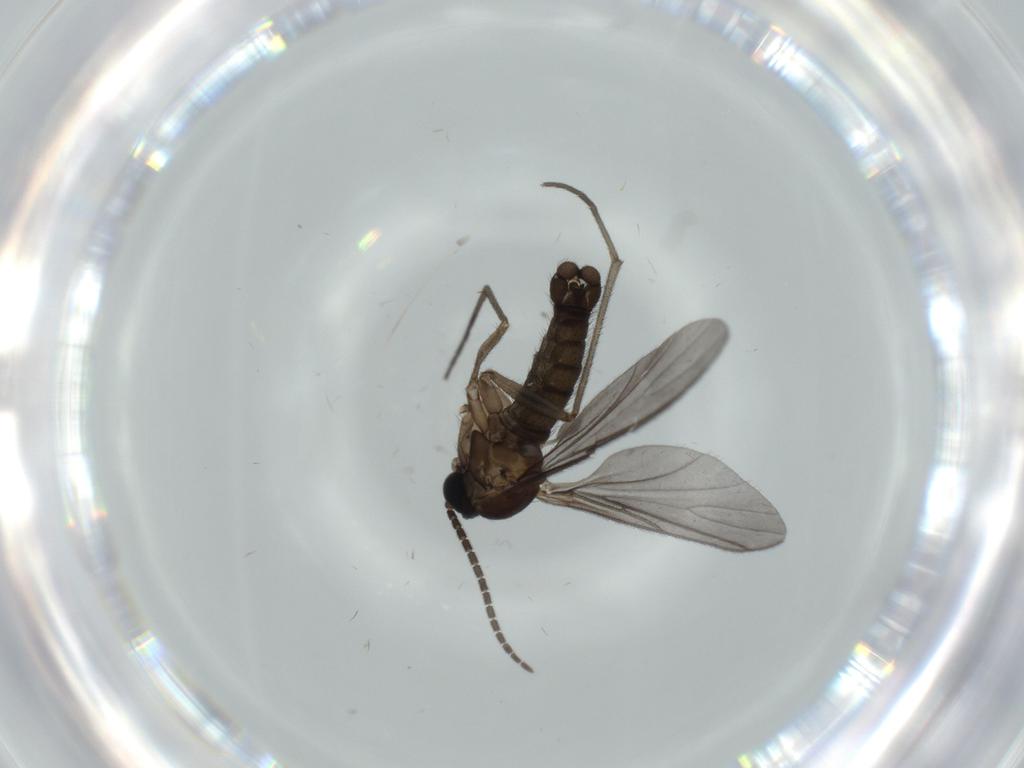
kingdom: Animalia
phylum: Arthropoda
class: Insecta
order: Diptera
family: Sciaridae
